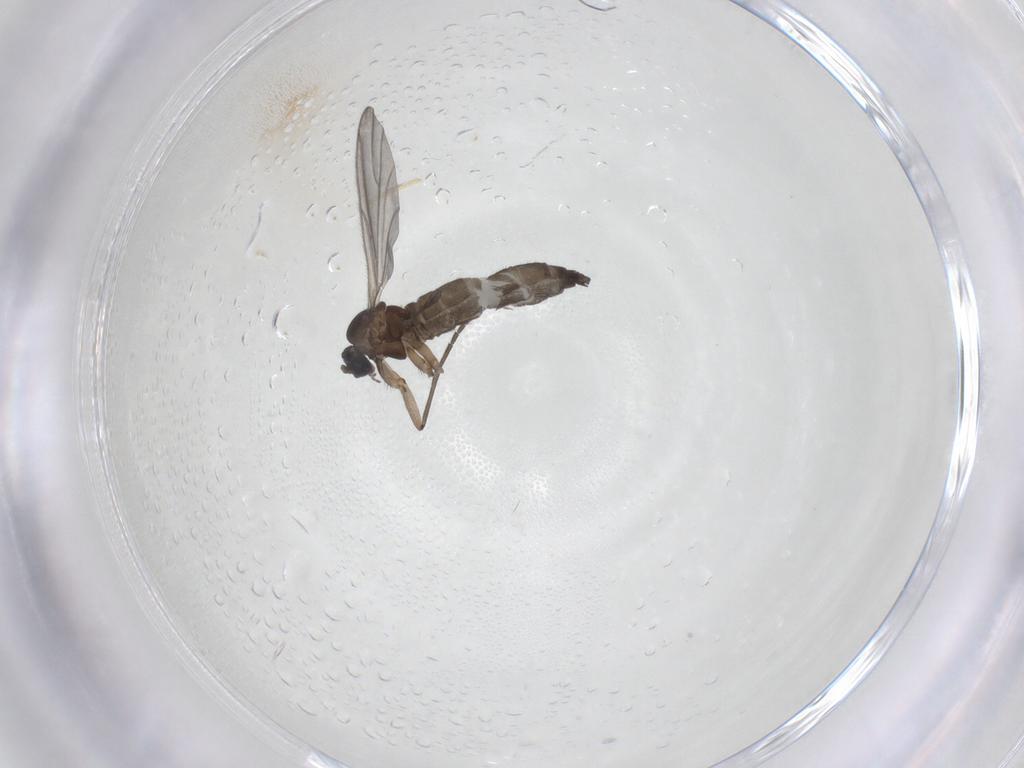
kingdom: Animalia
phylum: Arthropoda
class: Insecta
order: Diptera
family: Sciaridae
